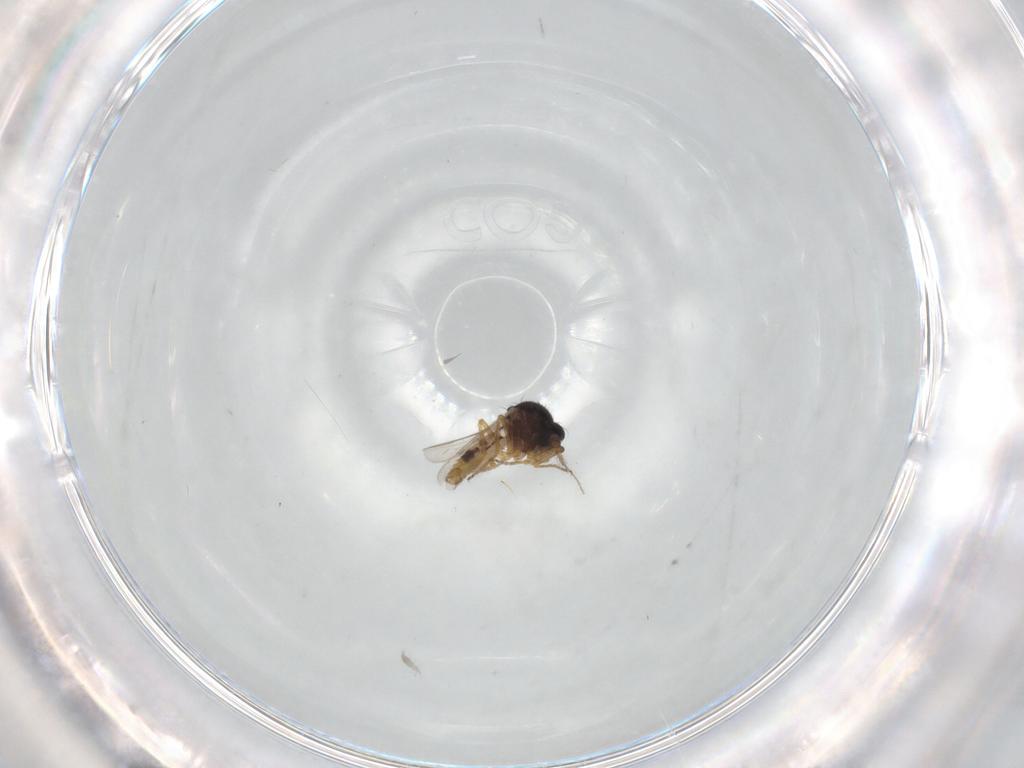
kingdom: Animalia
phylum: Arthropoda
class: Insecta
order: Diptera
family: Ceratopogonidae
